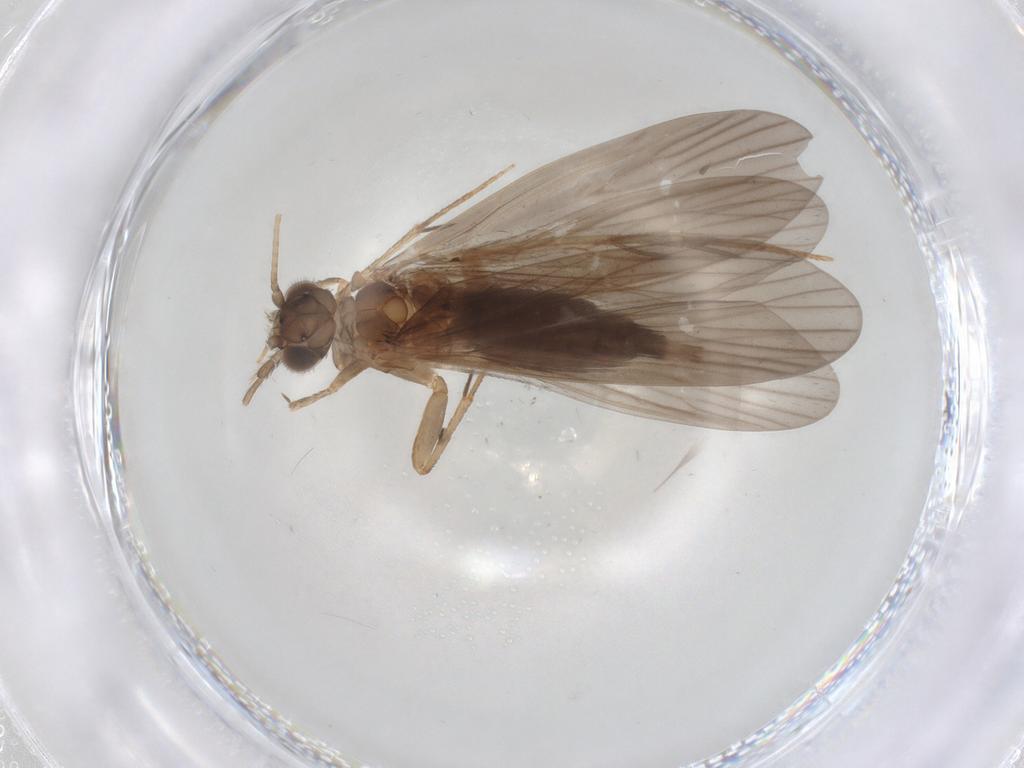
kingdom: Animalia
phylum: Arthropoda
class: Insecta
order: Trichoptera
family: Philopotamidae
